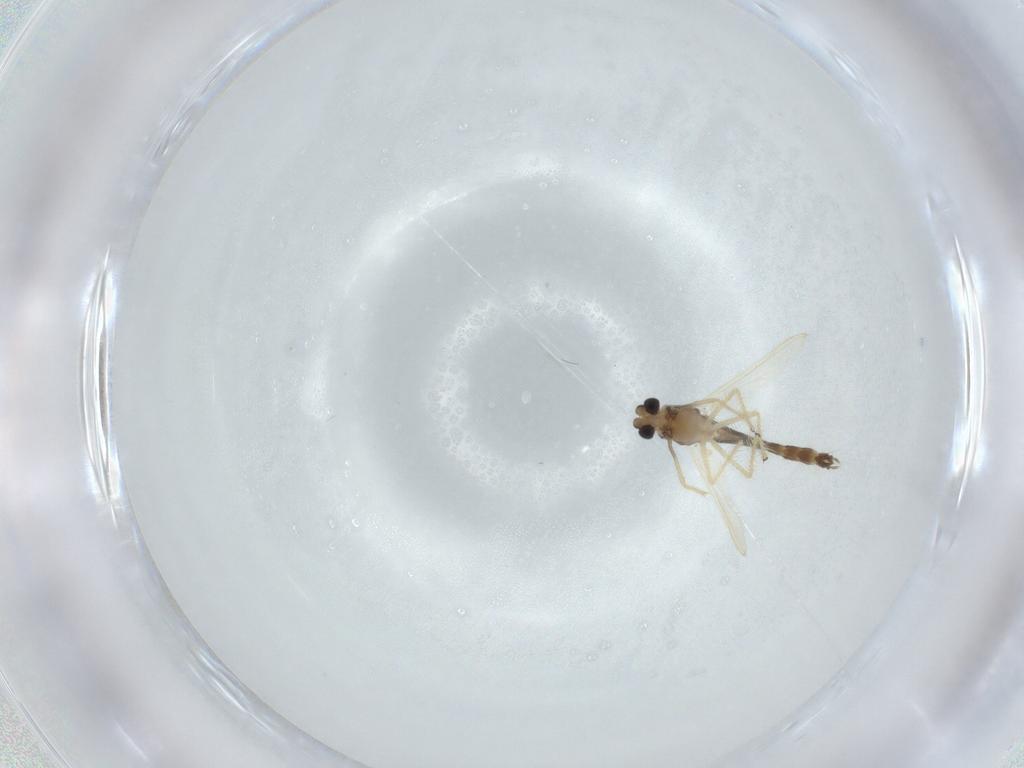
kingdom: Animalia
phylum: Arthropoda
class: Insecta
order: Diptera
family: Chironomidae
